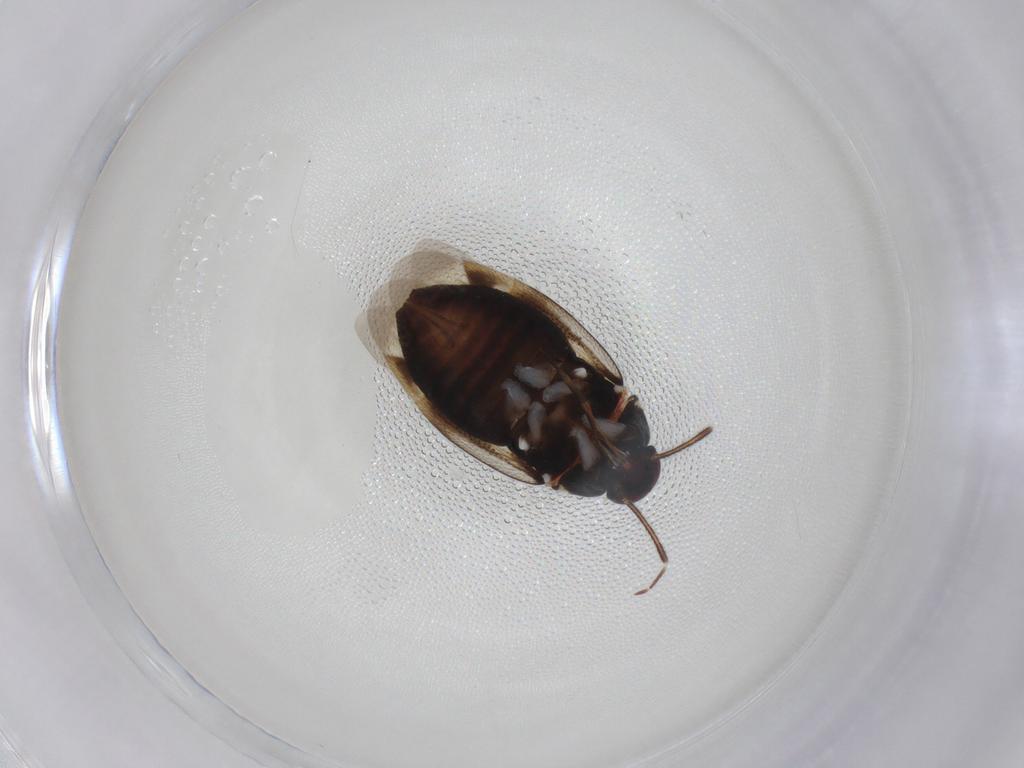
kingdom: Animalia
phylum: Arthropoda
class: Insecta
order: Hemiptera
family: Miridae
